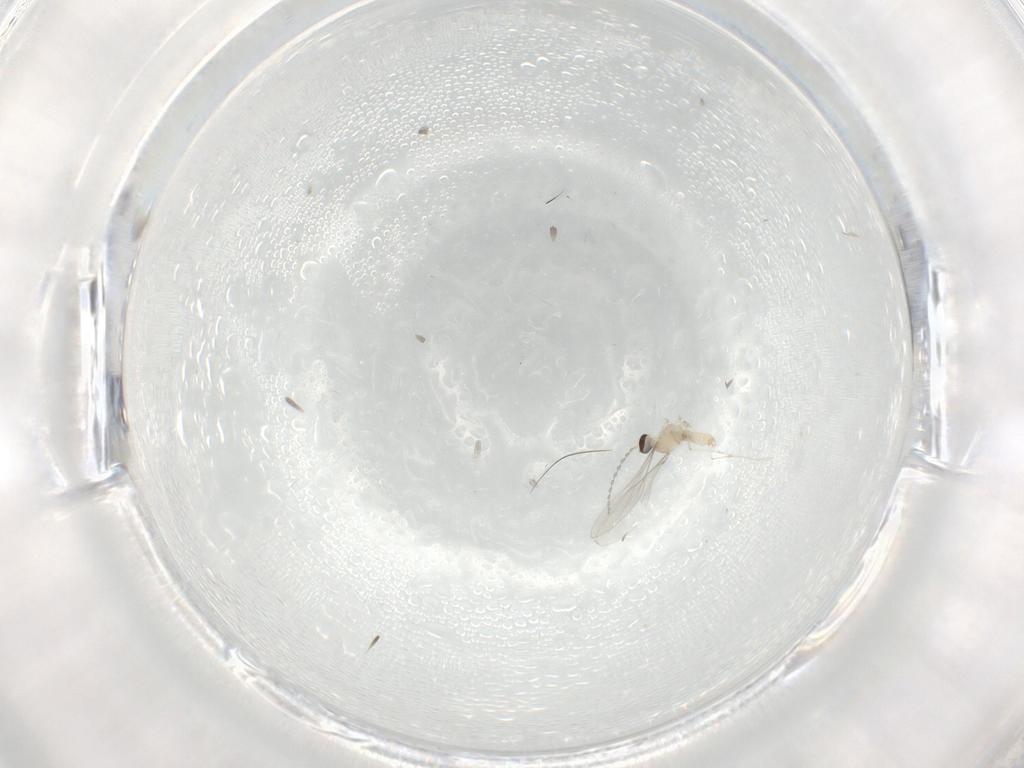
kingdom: Animalia
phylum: Arthropoda
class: Insecta
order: Diptera
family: Cecidomyiidae
